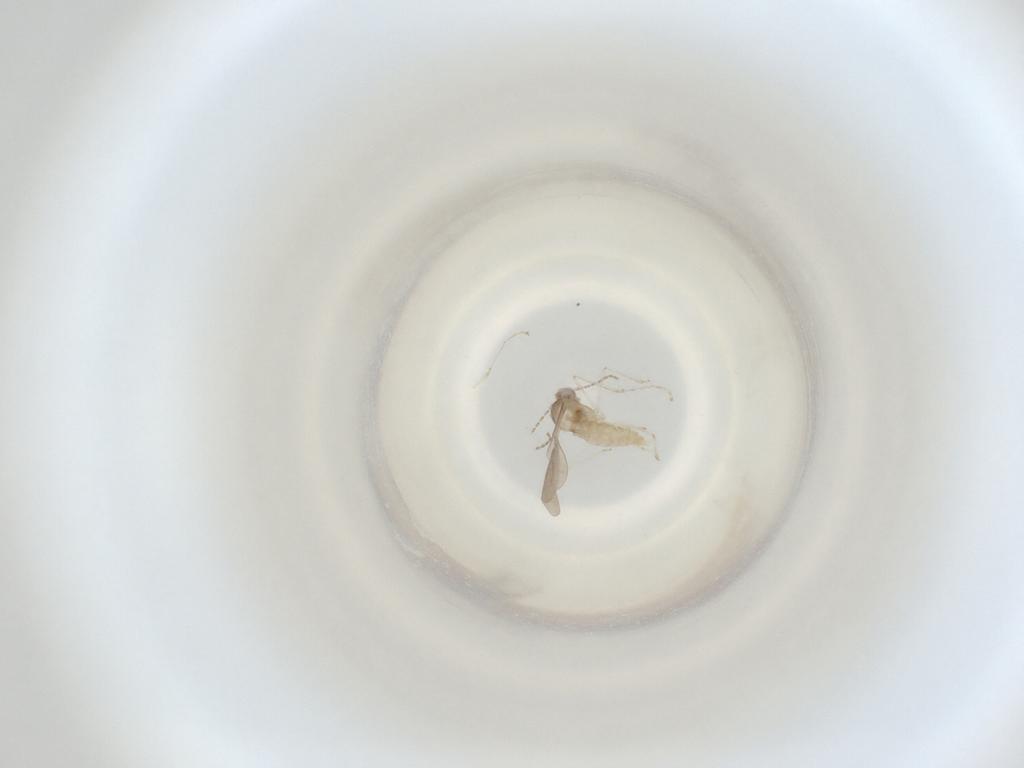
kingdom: Animalia
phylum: Arthropoda
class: Insecta
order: Diptera
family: Cecidomyiidae
